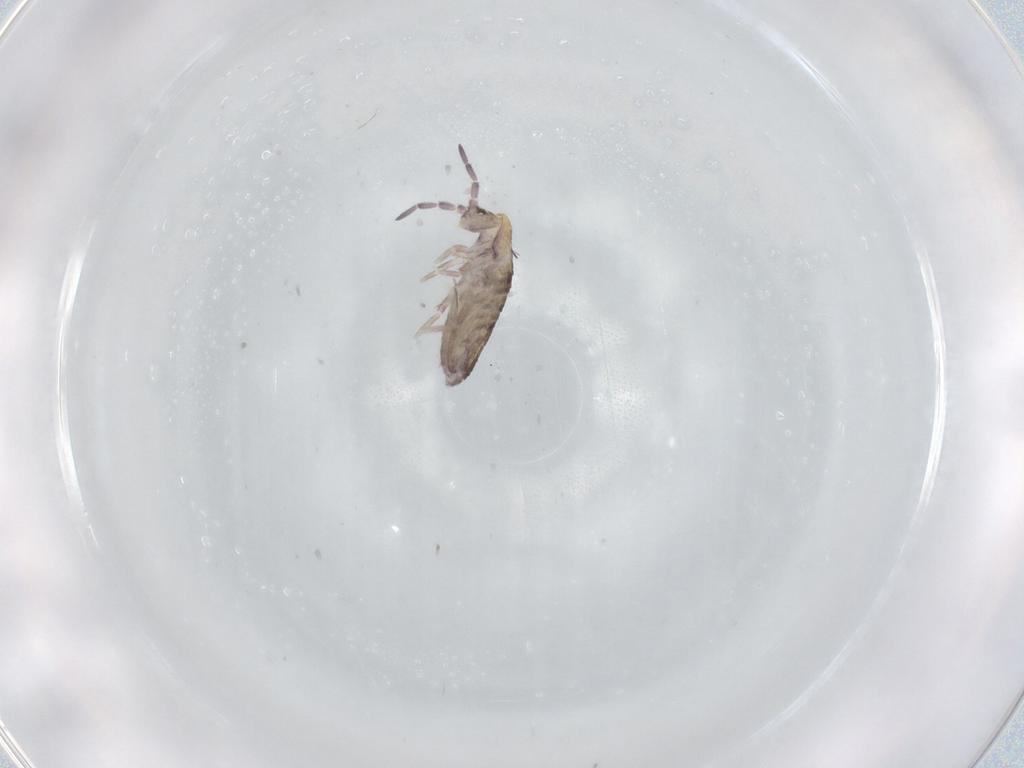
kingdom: Animalia
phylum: Arthropoda
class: Collembola
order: Entomobryomorpha
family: Entomobryidae
